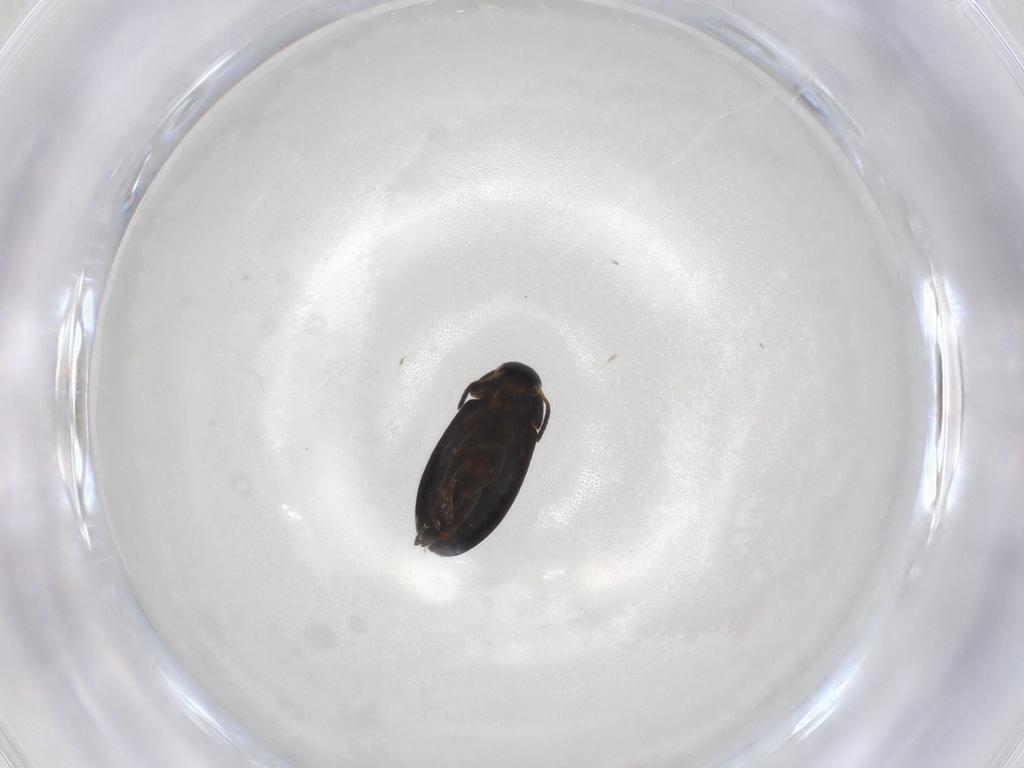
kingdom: Animalia
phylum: Arthropoda
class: Insecta
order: Coleoptera
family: Scraptiidae
